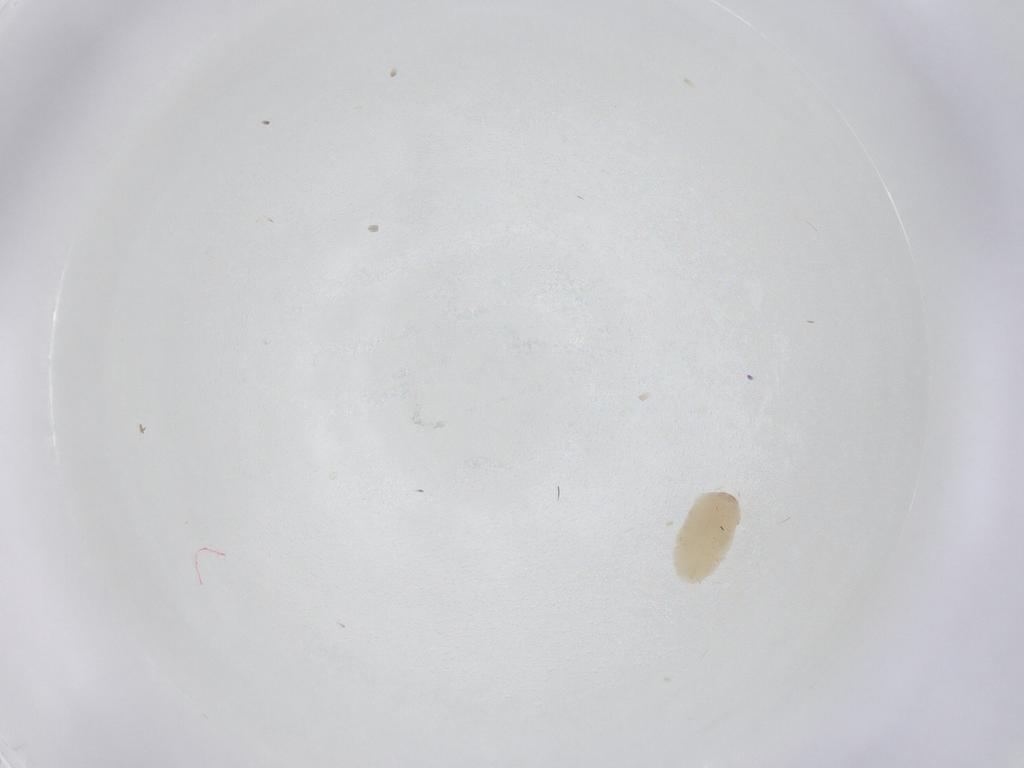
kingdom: Animalia
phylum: Arthropoda
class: Insecta
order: Coleoptera
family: Bostrichidae
